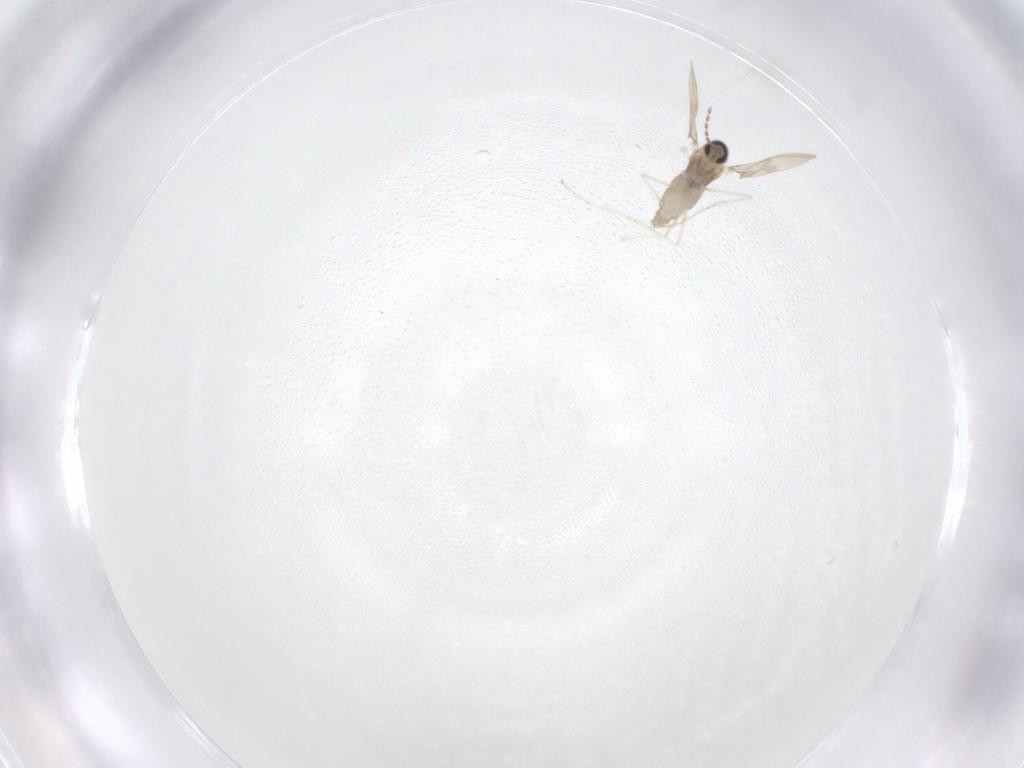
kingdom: Animalia
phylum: Arthropoda
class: Insecta
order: Diptera
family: Cecidomyiidae
